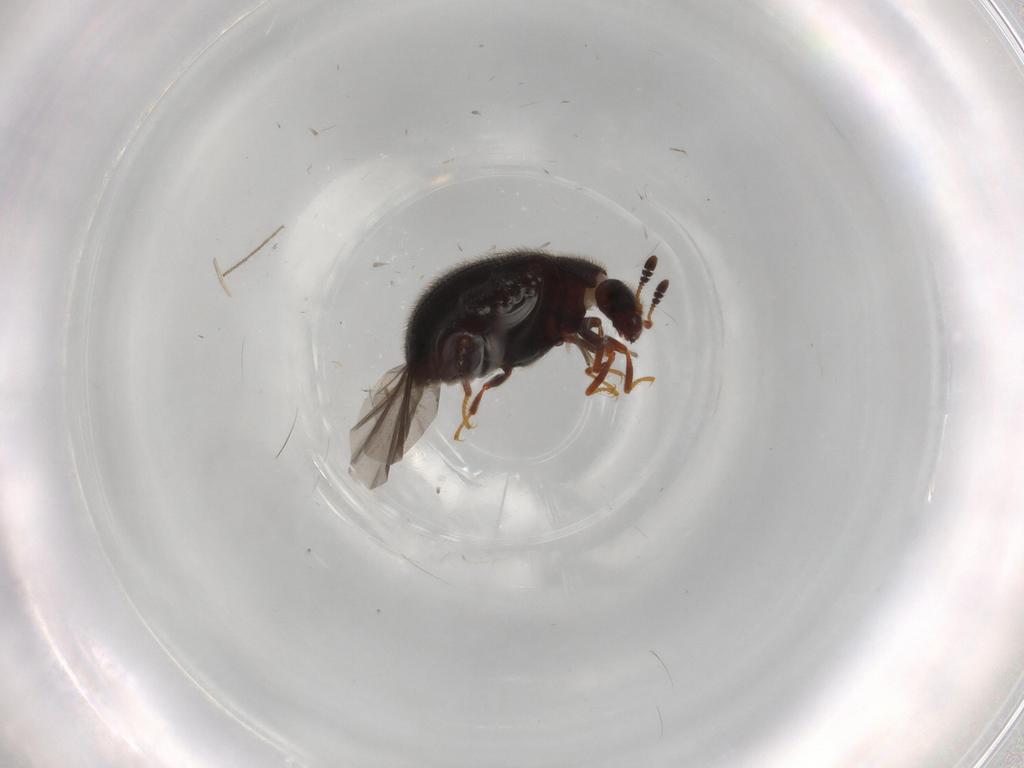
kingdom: Animalia
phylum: Arthropoda
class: Insecta
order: Coleoptera
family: Sphindidae
